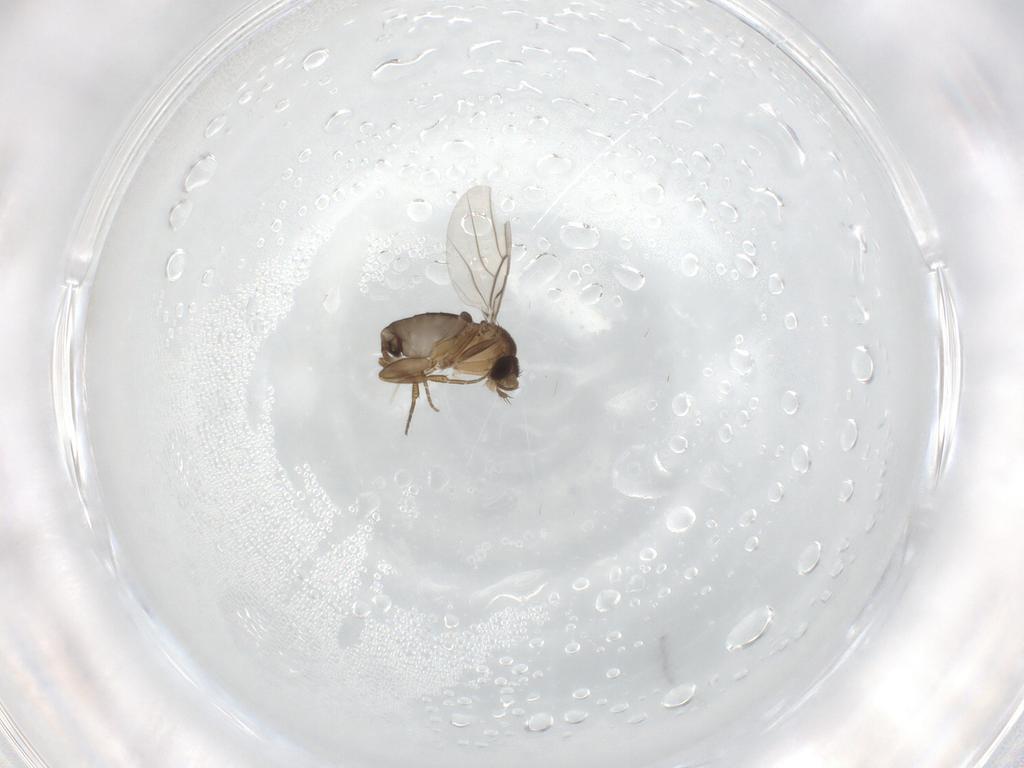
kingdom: Animalia
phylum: Arthropoda
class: Insecta
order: Diptera
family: Cecidomyiidae
